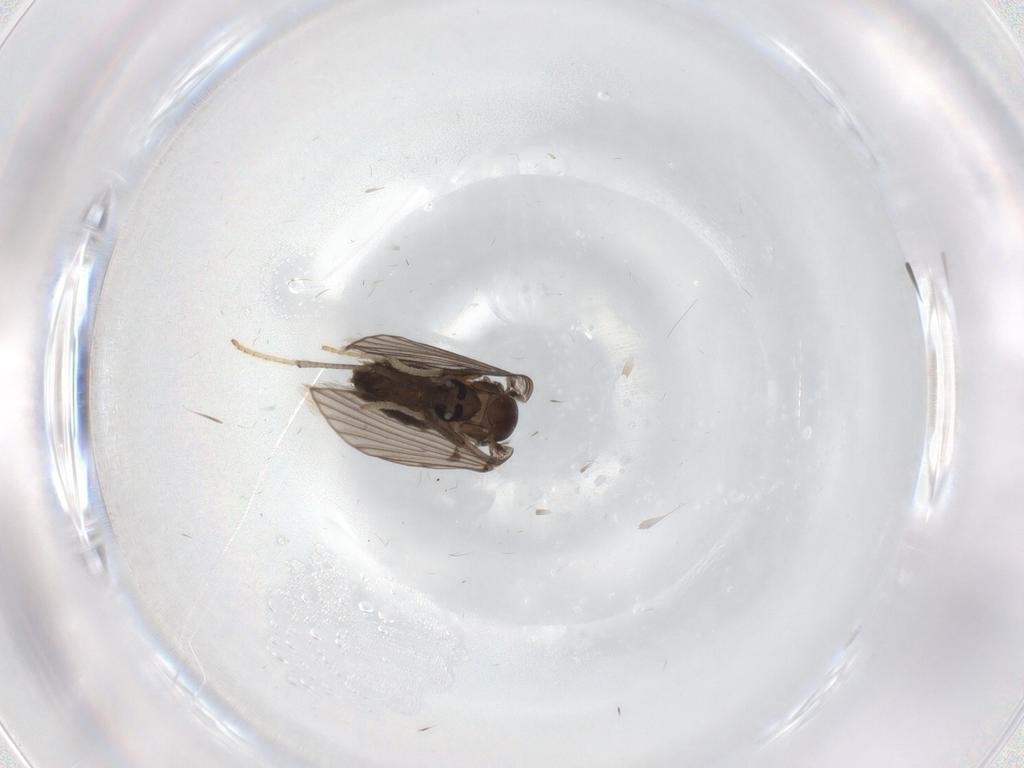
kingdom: Animalia
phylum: Arthropoda
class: Insecta
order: Diptera
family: Psychodidae
